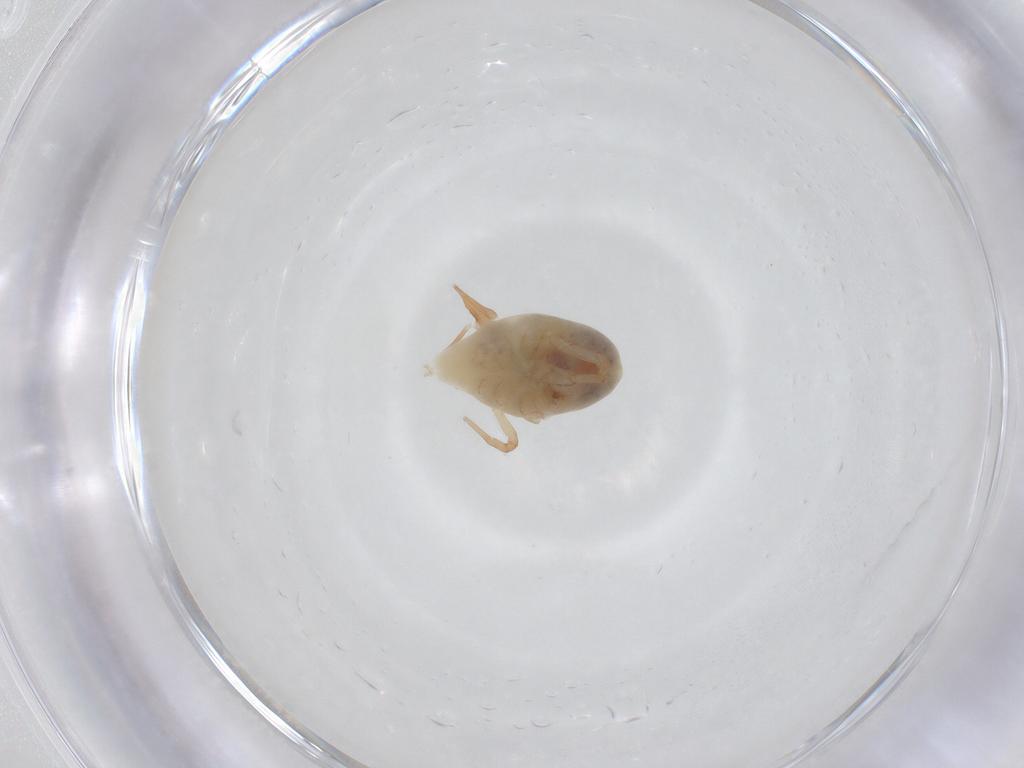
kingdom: Animalia
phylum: Arthropoda
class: Arachnida
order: Trombidiformes
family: Bdellidae
